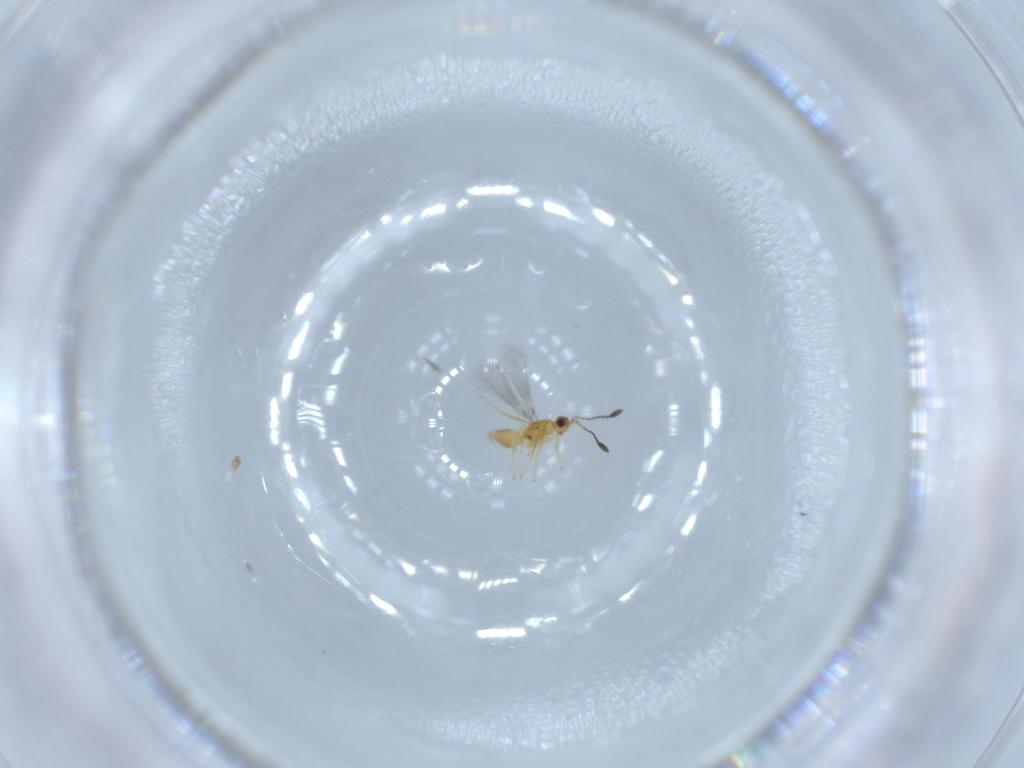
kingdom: Animalia
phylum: Arthropoda
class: Insecta
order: Hymenoptera
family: Mymaridae
